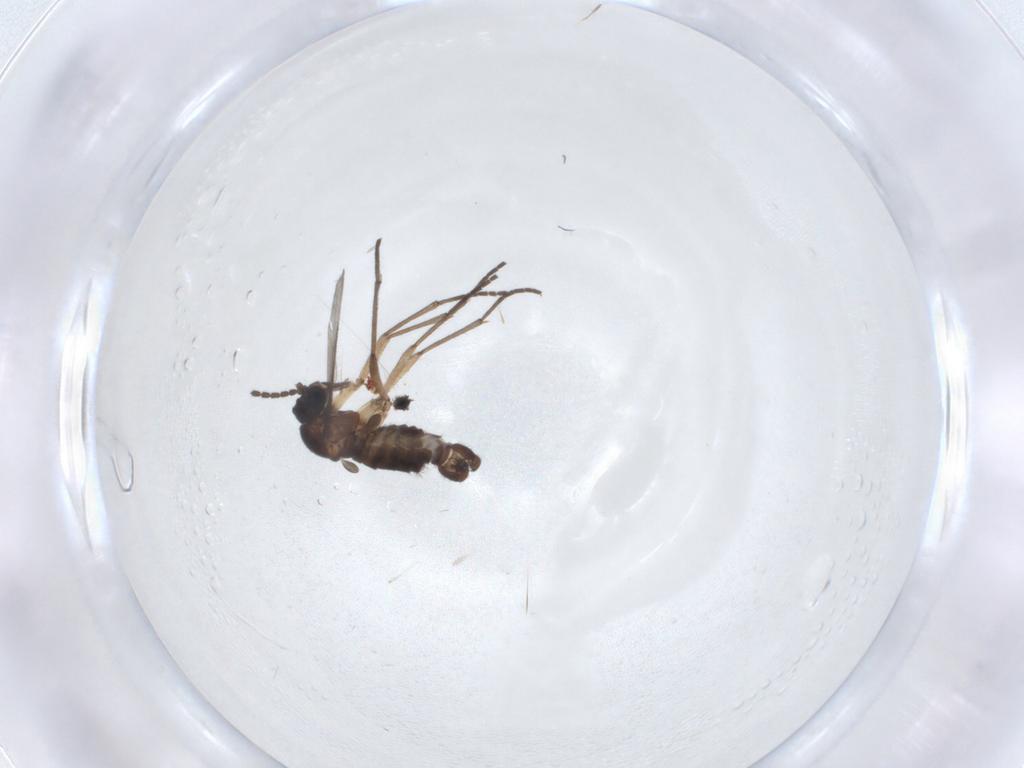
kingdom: Animalia
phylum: Arthropoda
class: Insecta
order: Diptera
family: Sciaridae
